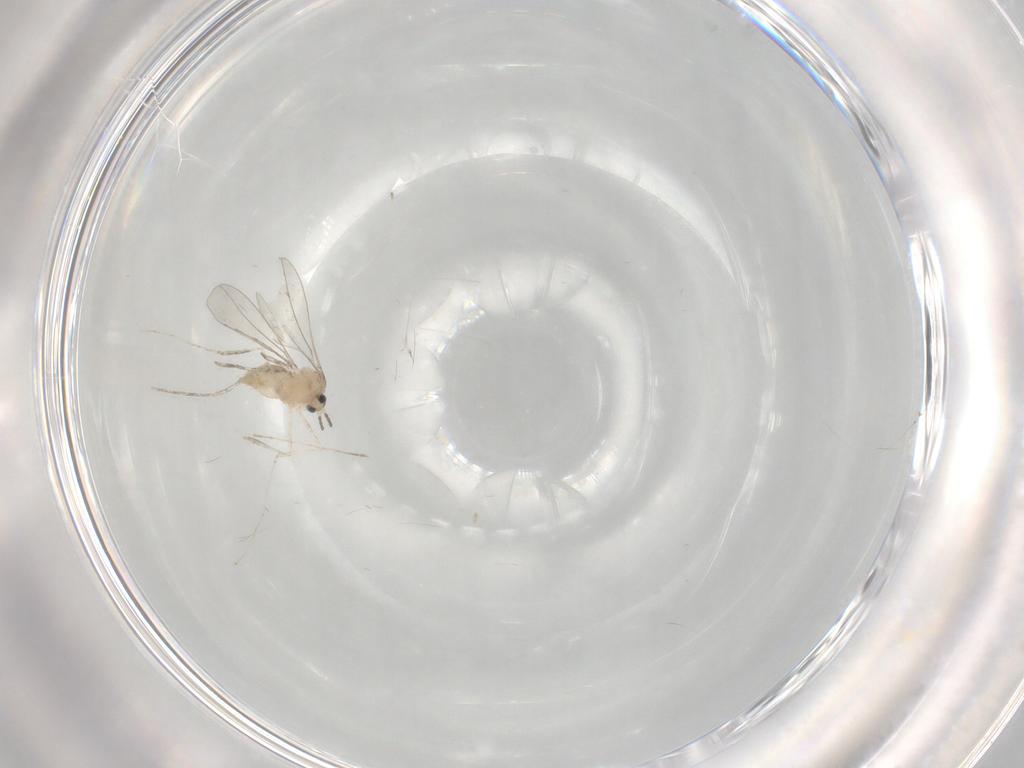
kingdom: Animalia
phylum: Arthropoda
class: Insecta
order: Diptera
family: Cecidomyiidae
